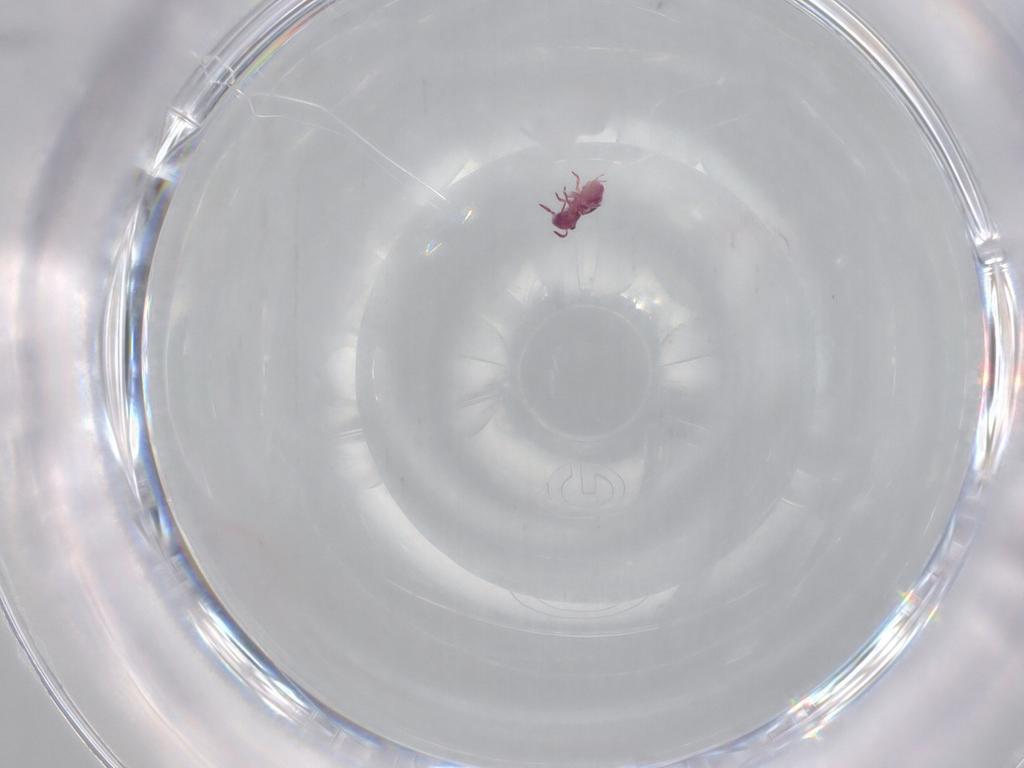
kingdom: Animalia
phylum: Arthropoda
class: Collembola
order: Symphypleona
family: Sminthurididae
